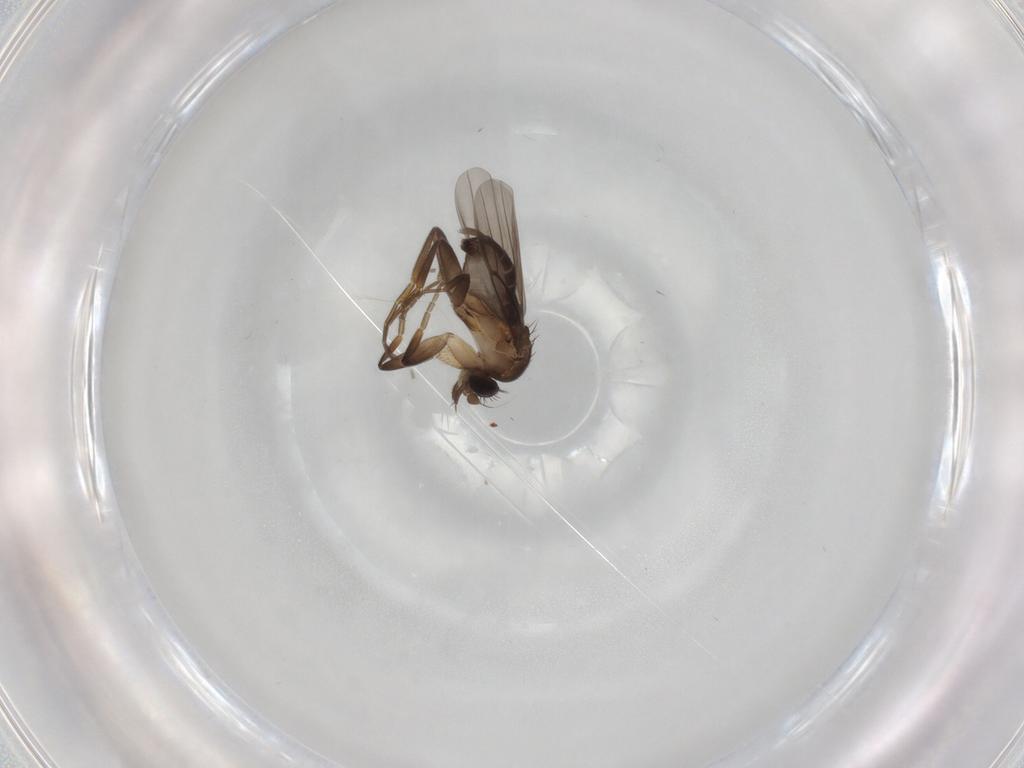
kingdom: Animalia
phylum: Arthropoda
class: Insecta
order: Diptera
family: Phoridae
